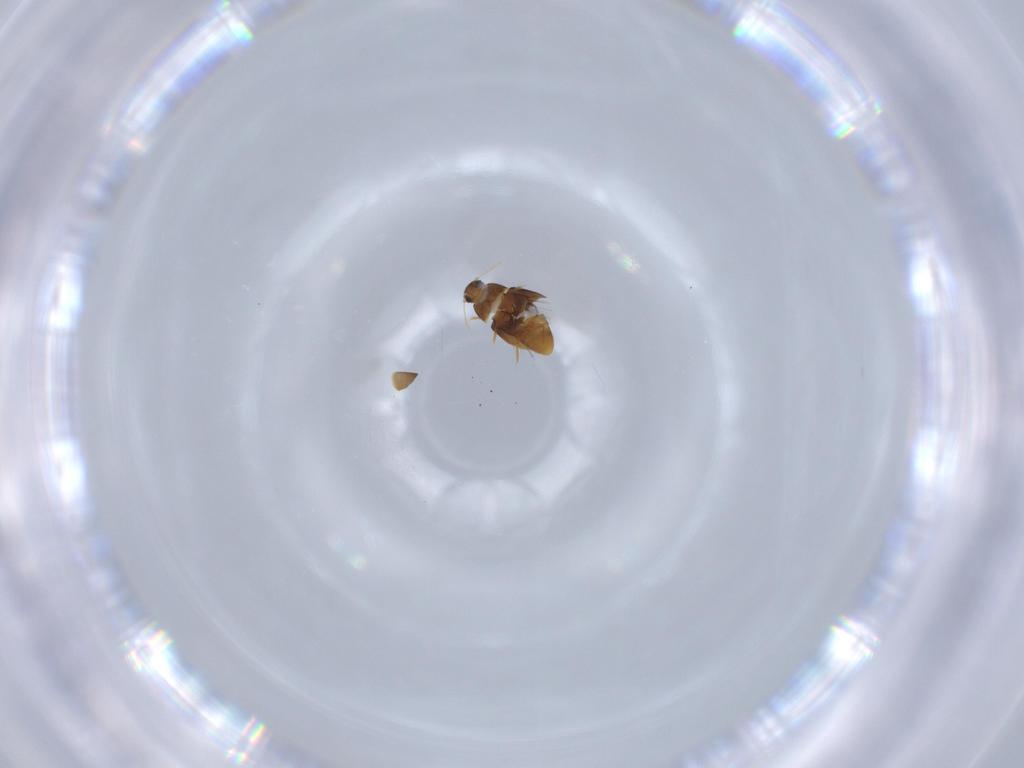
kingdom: Animalia
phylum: Arthropoda
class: Insecta
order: Coleoptera
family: Ptiliidae
